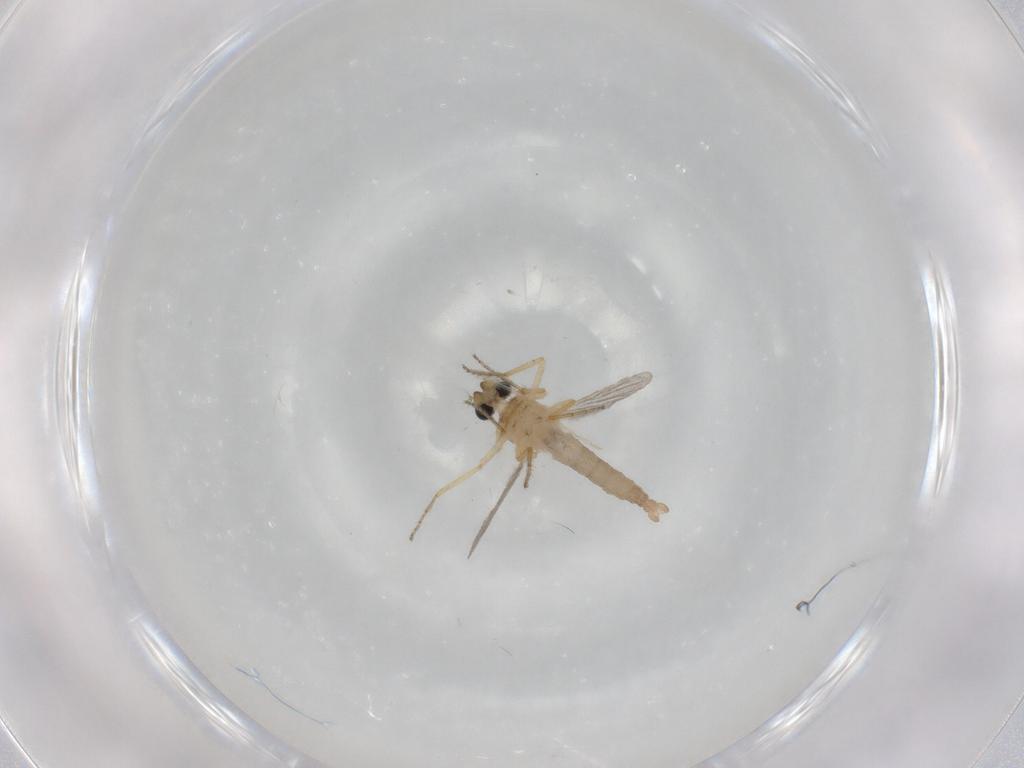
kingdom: Animalia
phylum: Arthropoda
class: Insecta
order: Diptera
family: Ceratopogonidae
